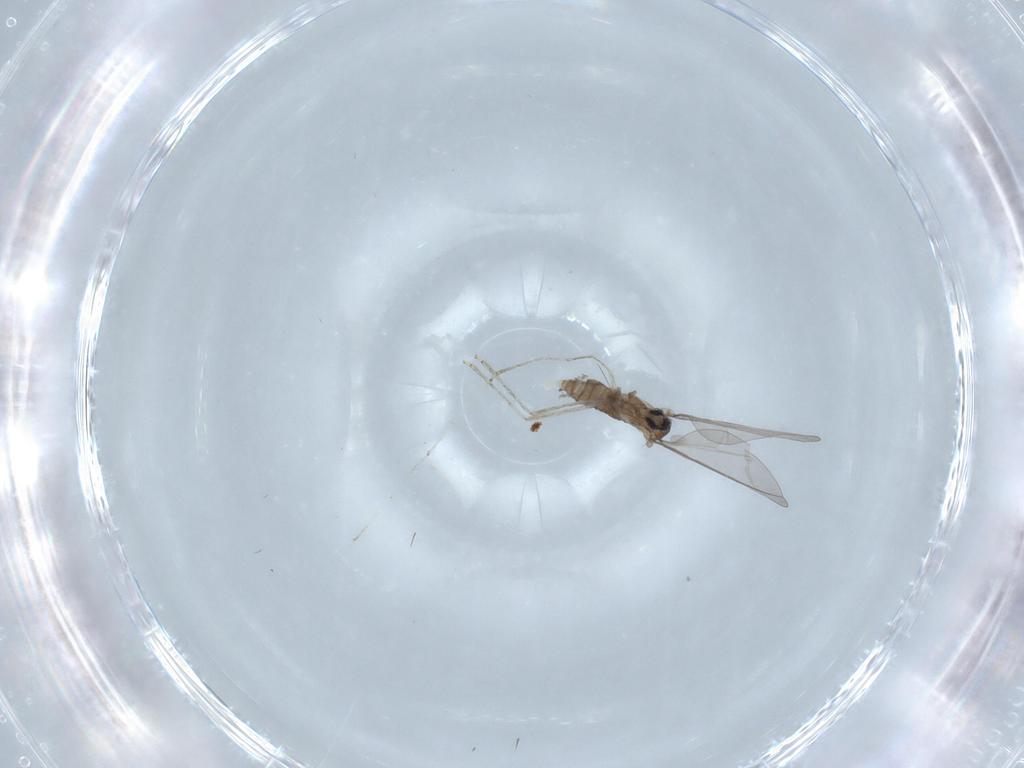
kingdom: Animalia
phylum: Arthropoda
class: Insecta
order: Diptera
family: Cecidomyiidae
